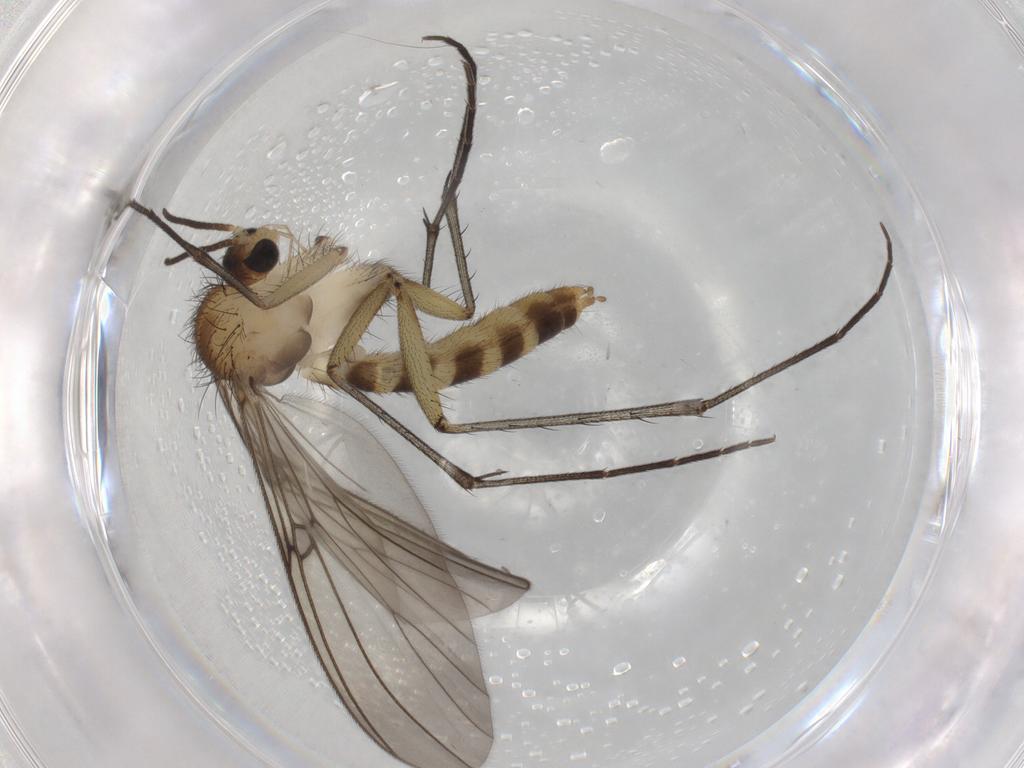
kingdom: Animalia
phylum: Arthropoda
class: Insecta
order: Diptera
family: Mycetophilidae
